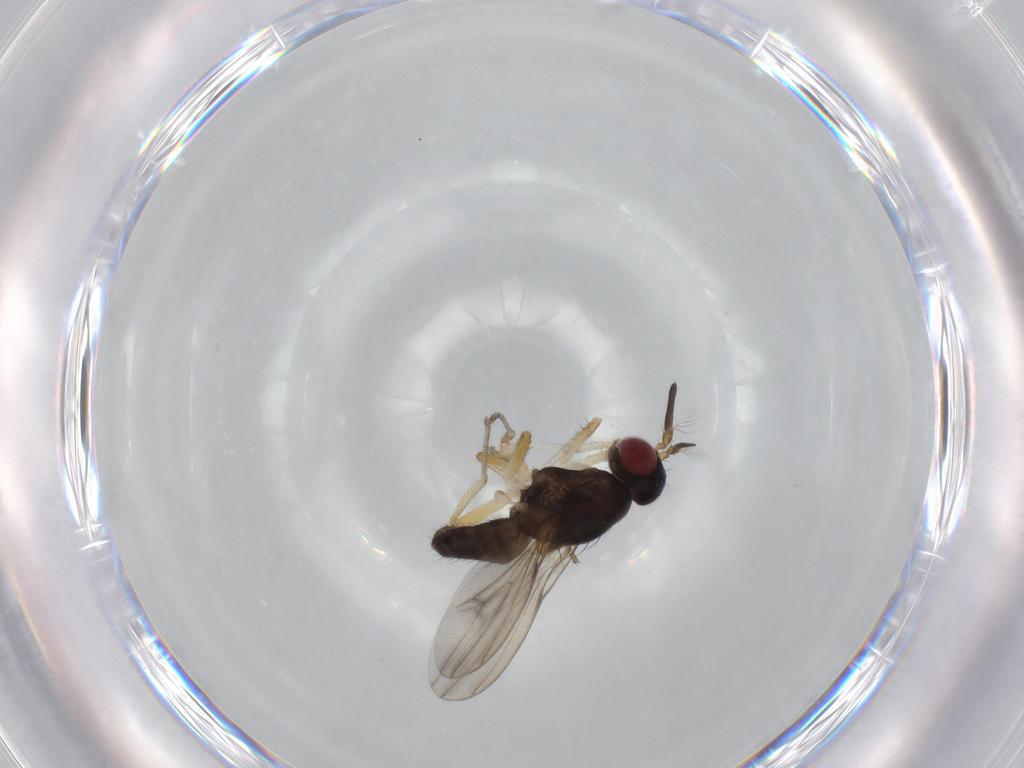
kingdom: Animalia
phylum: Arthropoda
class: Insecta
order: Diptera
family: Lauxaniidae
